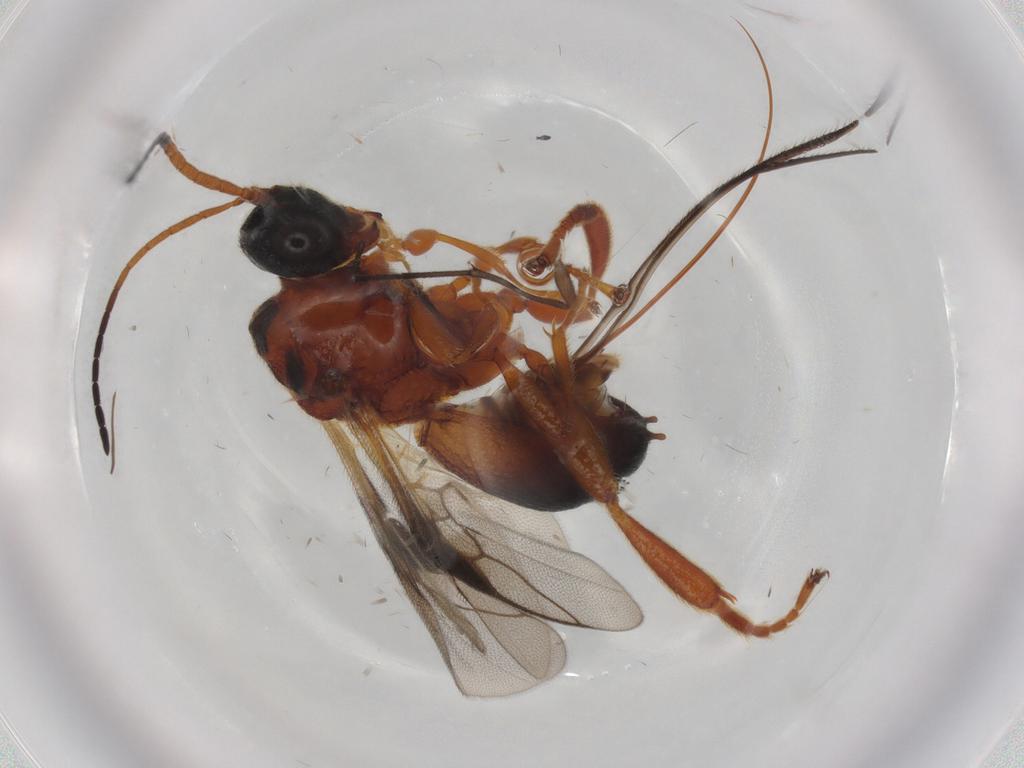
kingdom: Animalia
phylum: Arthropoda
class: Insecta
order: Hymenoptera
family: Braconidae
